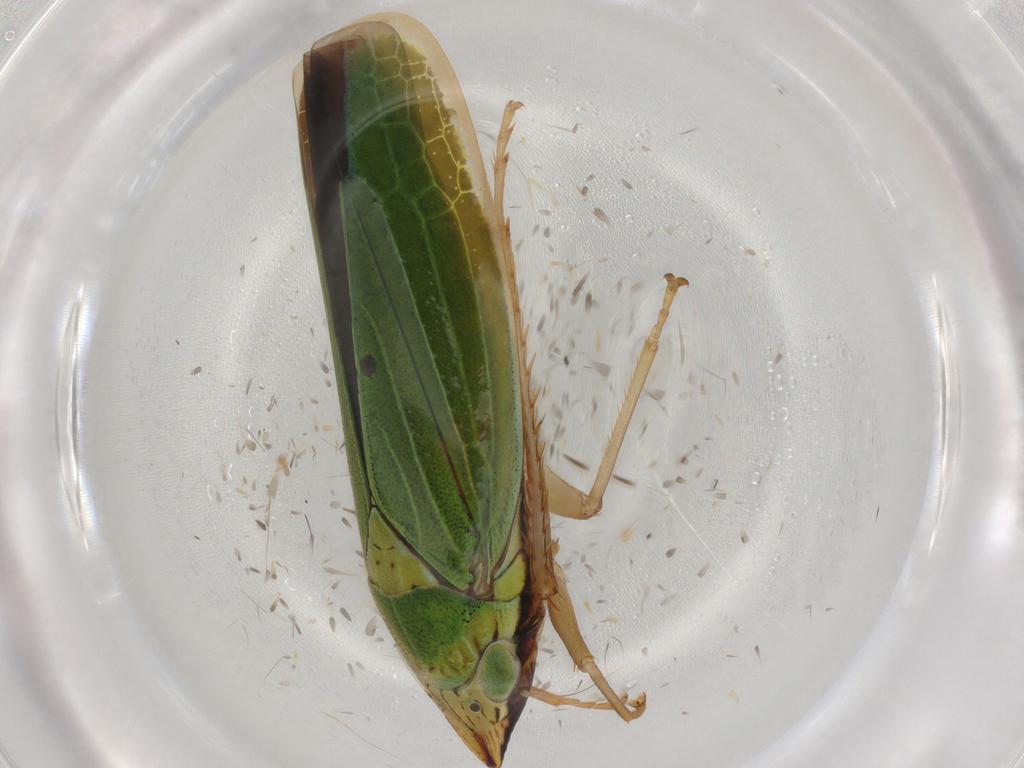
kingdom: Animalia
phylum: Arthropoda
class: Insecta
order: Hemiptera
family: Cicadellidae
